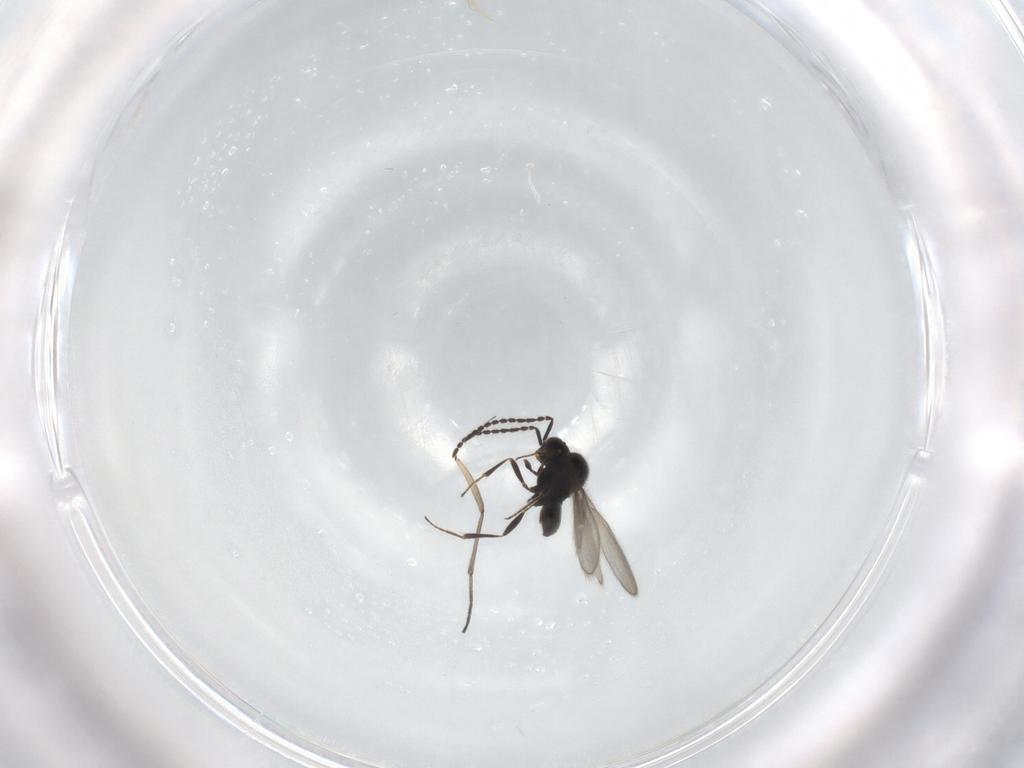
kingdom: Animalia
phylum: Arthropoda
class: Insecta
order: Hymenoptera
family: Scelionidae
